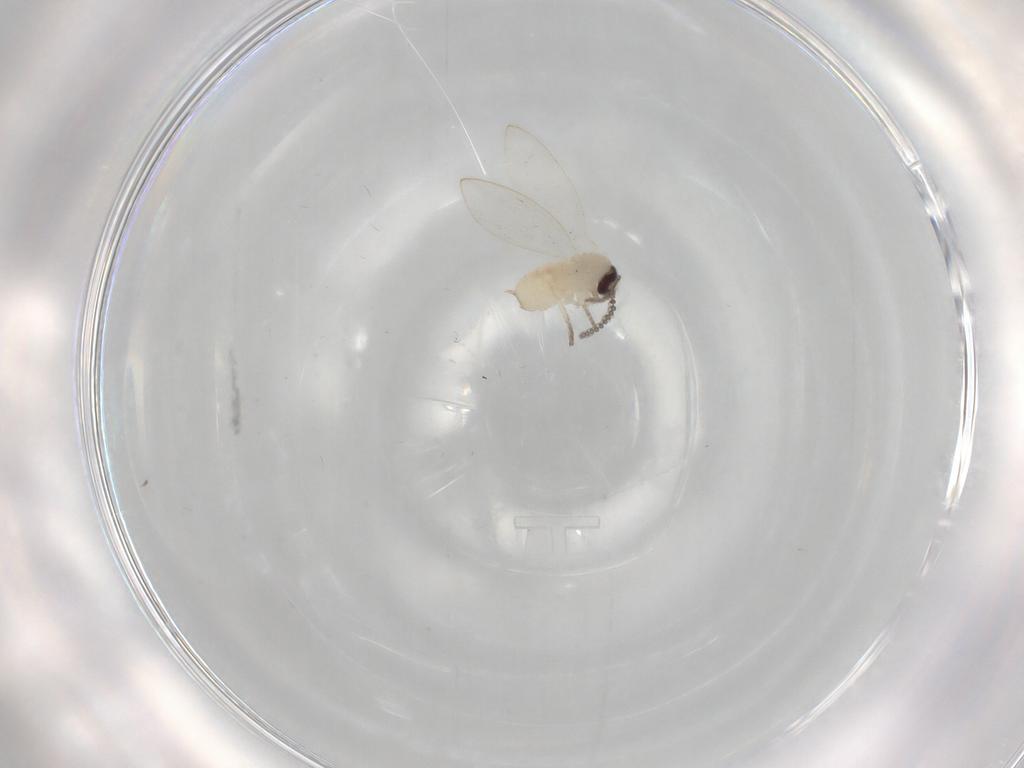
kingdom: Animalia
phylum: Arthropoda
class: Insecta
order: Diptera
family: Psychodidae
